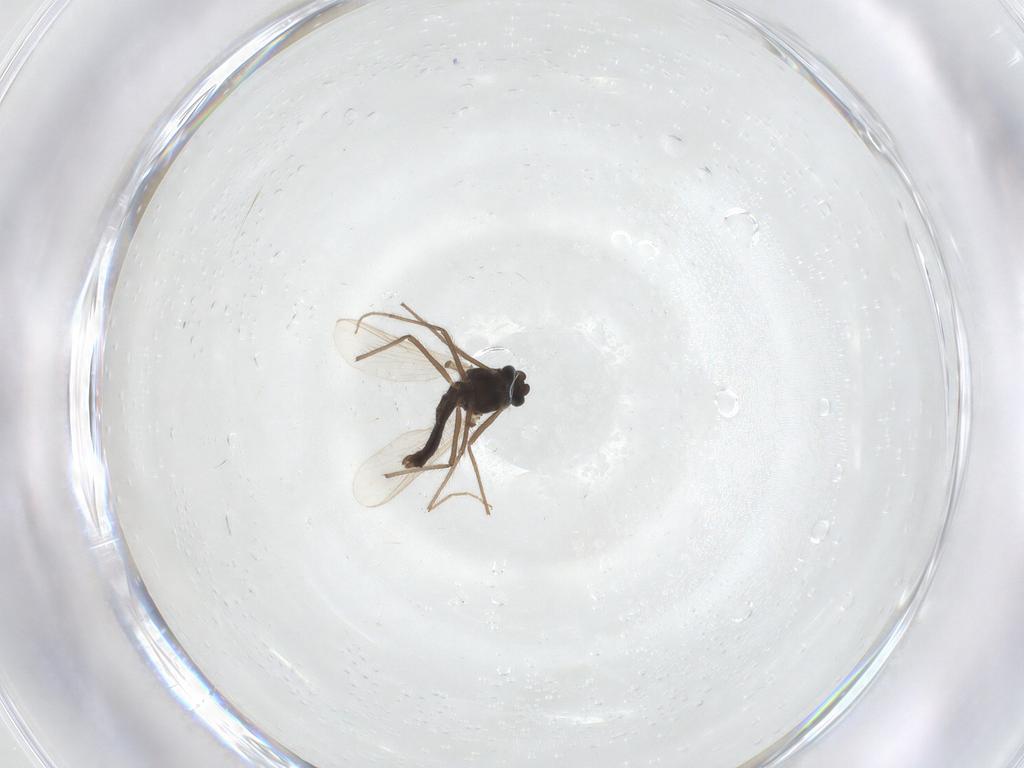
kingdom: Animalia
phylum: Arthropoda
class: Insecta
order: Diptera
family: Chironomidae
